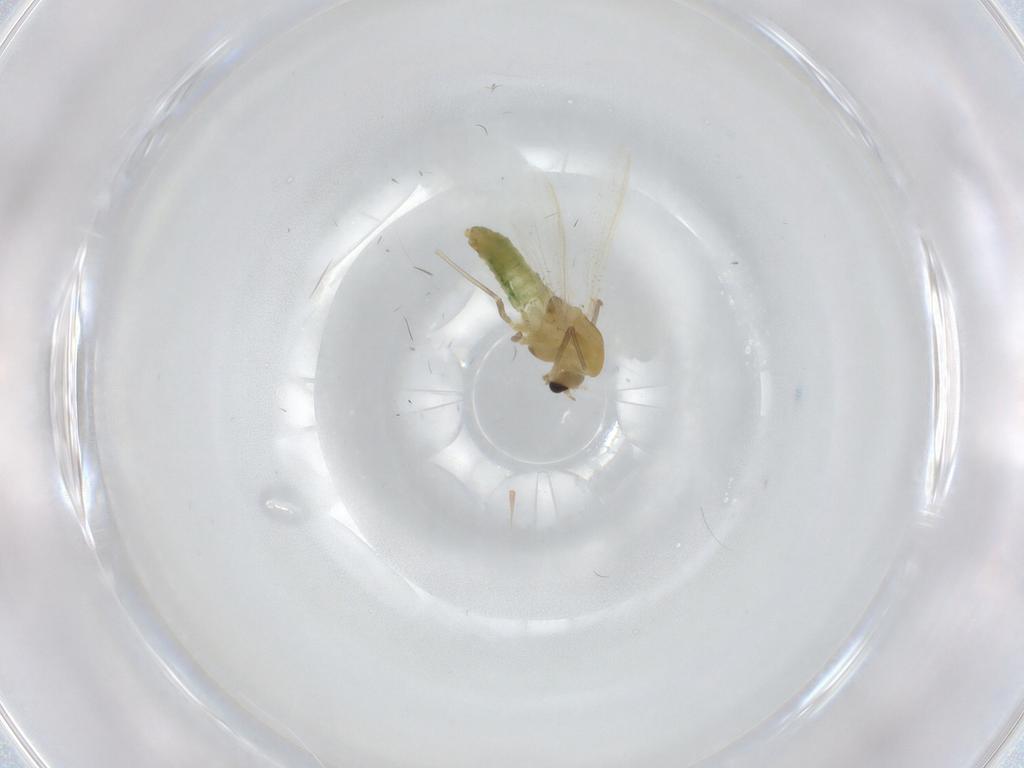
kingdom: Animalia
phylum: Arthropoda
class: Insecta
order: Diptera
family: Chironomidae
